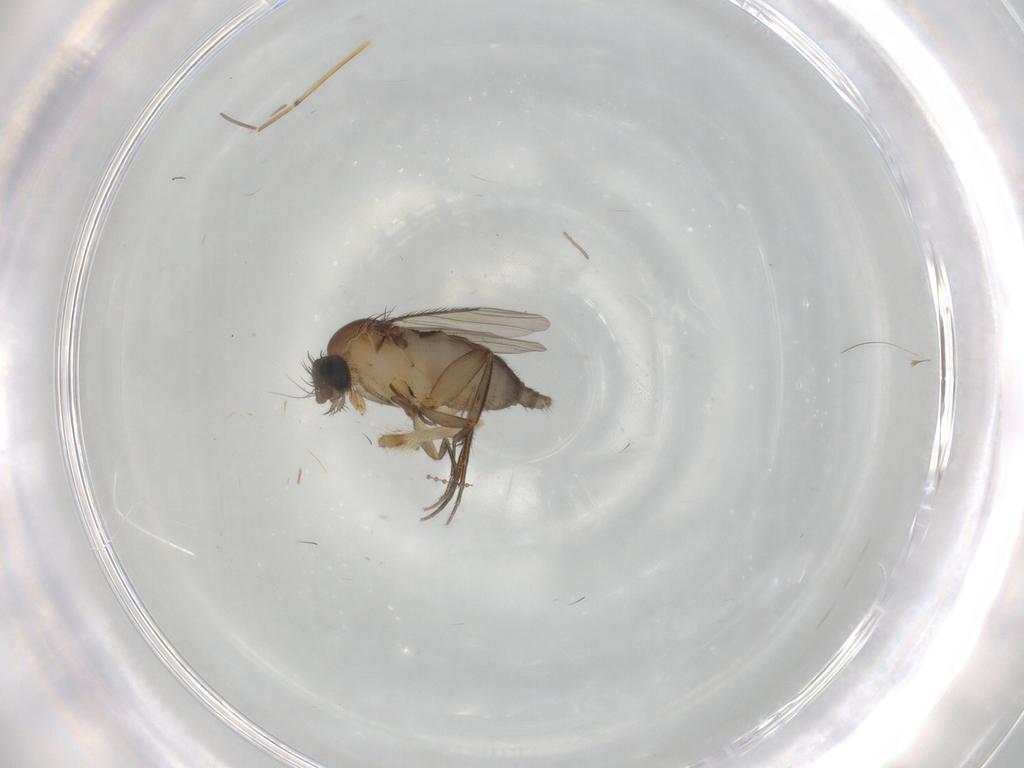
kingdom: Animalia
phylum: Arthropoda
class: Insecta
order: Diptera
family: Phoridae
